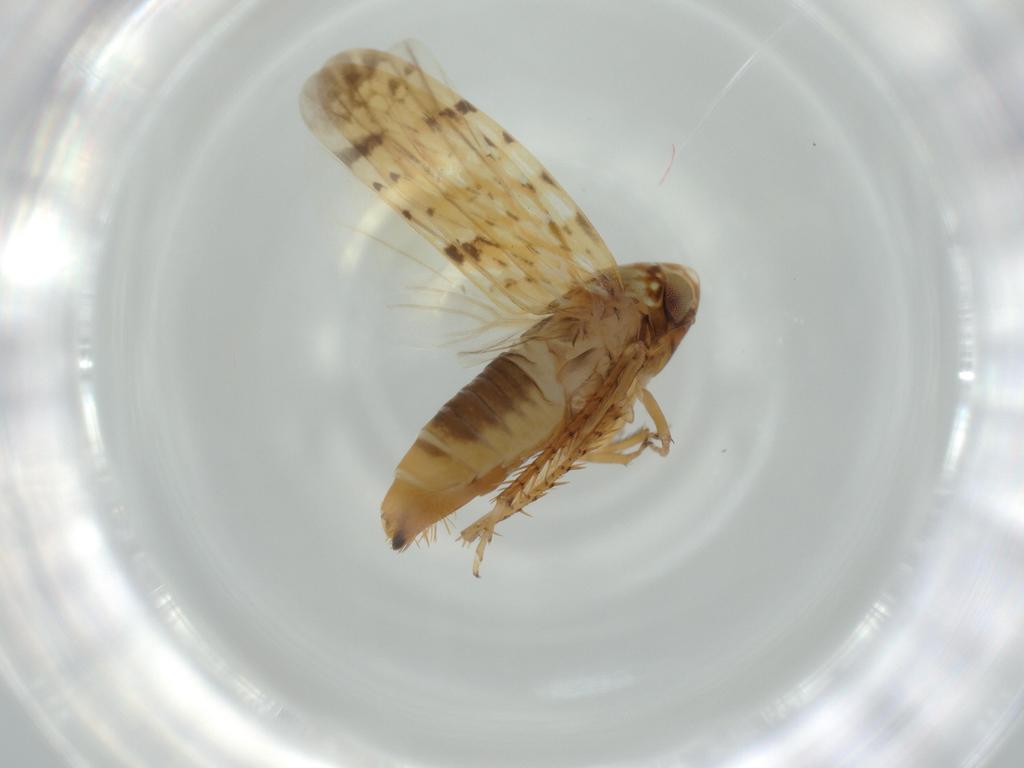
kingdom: Animalia
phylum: Arthropoda
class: Insecta
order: Hemiptera
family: Cicadellidae
